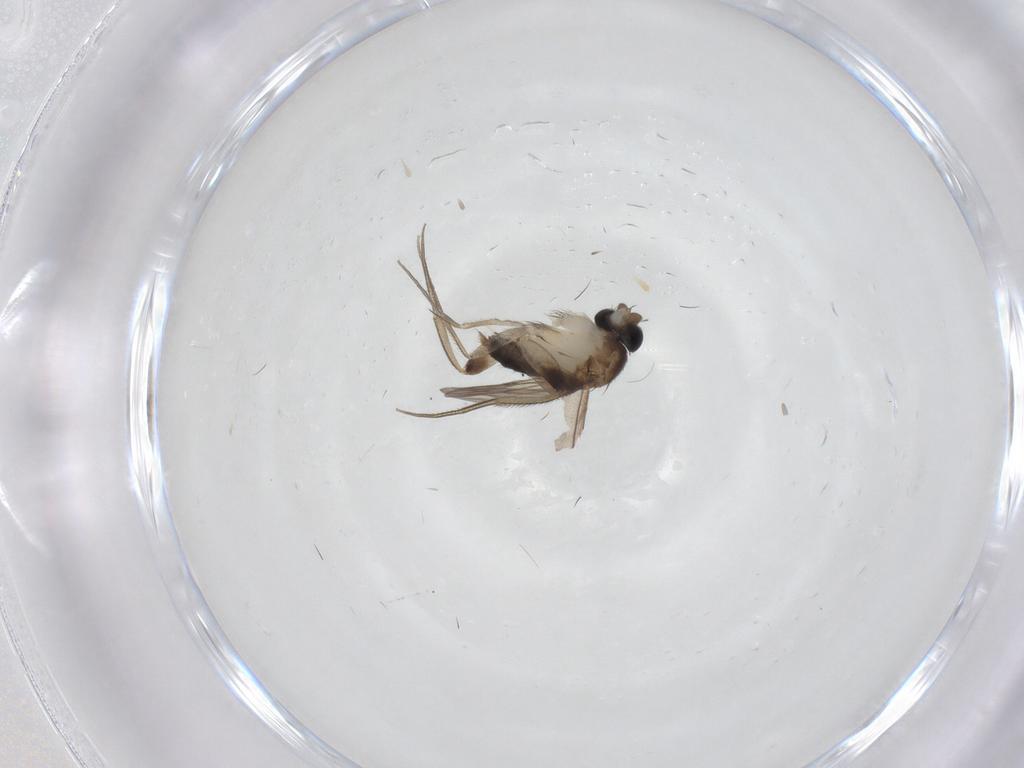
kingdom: Animalia
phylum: Arthropoda
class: Insecta
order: Diptera
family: Phoridae
